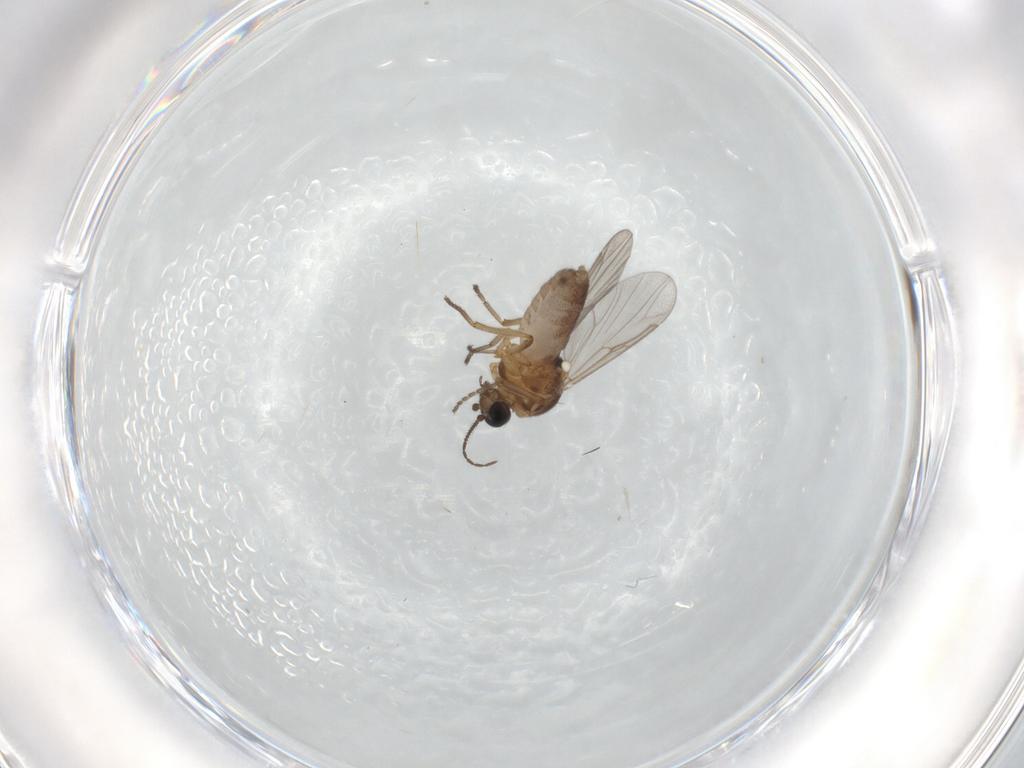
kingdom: Animalia
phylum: Arthropoda
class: Insecta
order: Diptera
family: Ceratopogonidae
